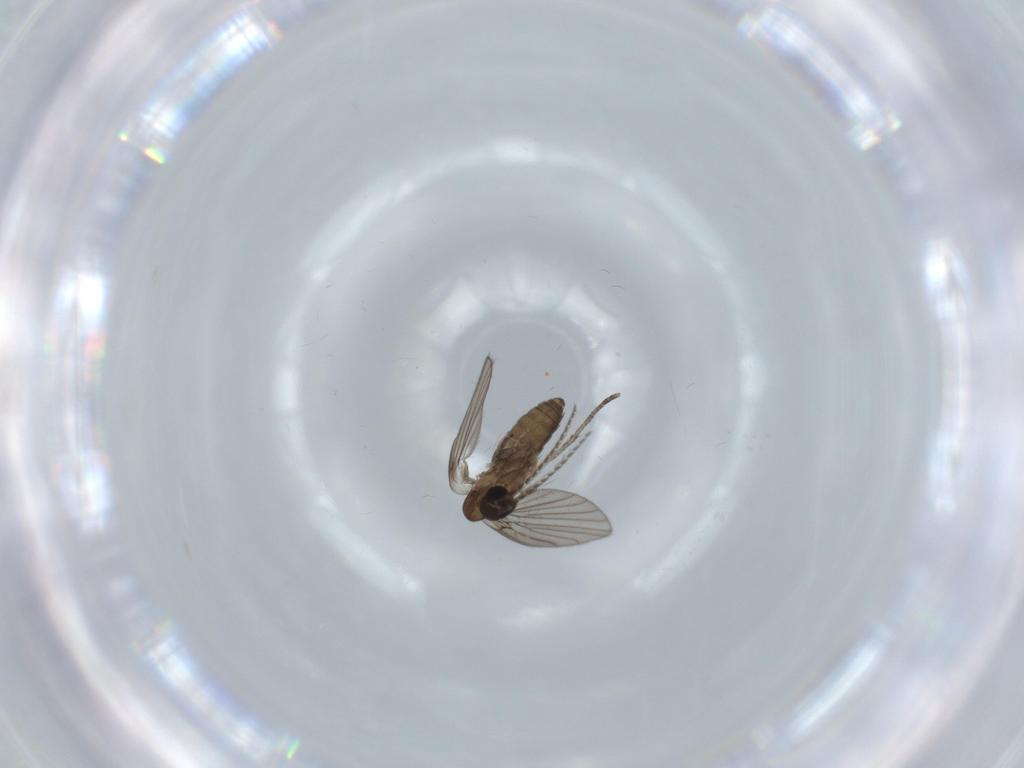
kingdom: Animalia
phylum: Arthropoda
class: Insecta
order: Diptera
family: Psychodidae
